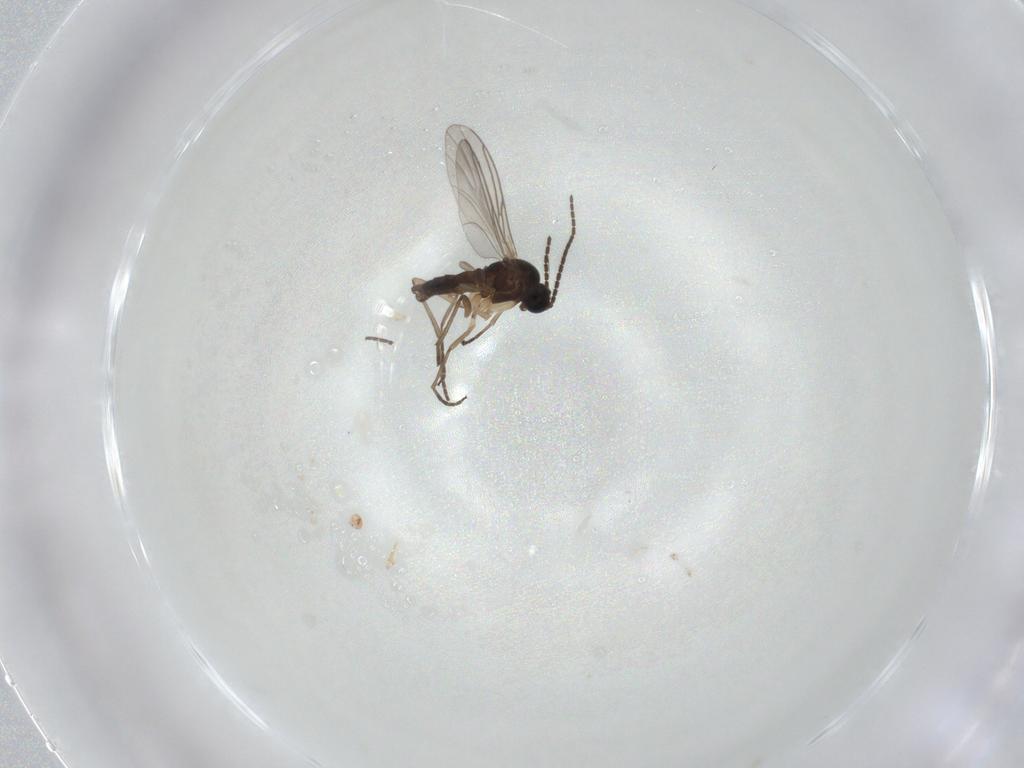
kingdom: Animalia
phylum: Arthropoda
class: Insecta
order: Diptera
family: Sciaridae
